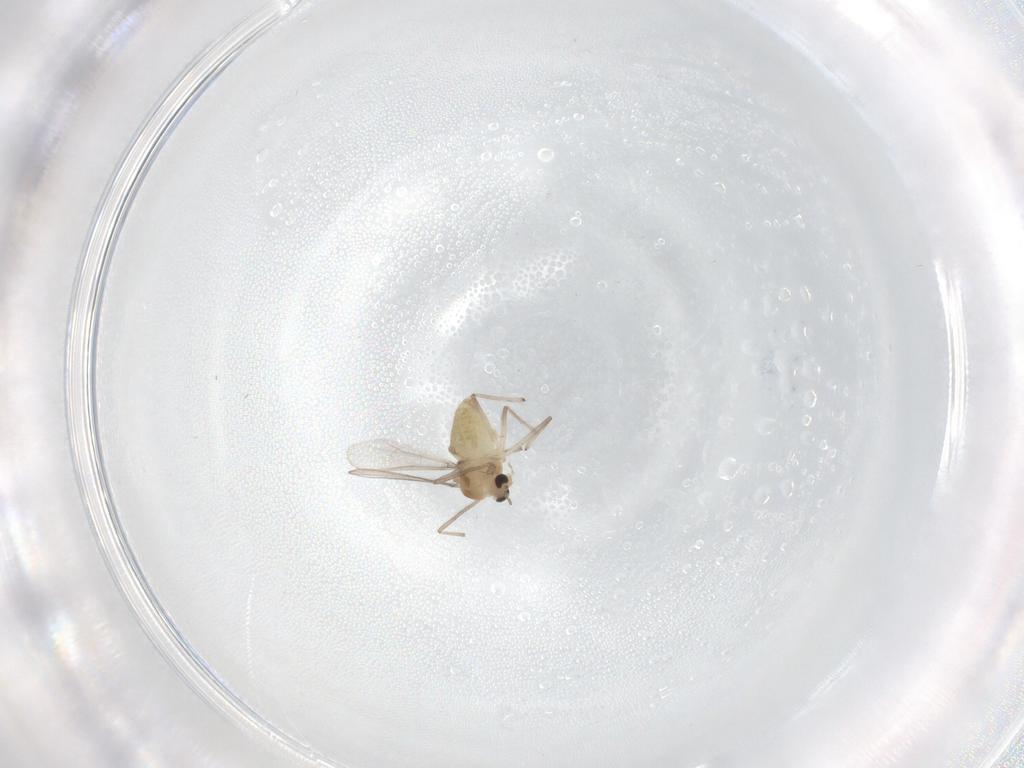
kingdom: Animalia
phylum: Arthropoda
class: Insecta
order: Diptera
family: Chironomidae
